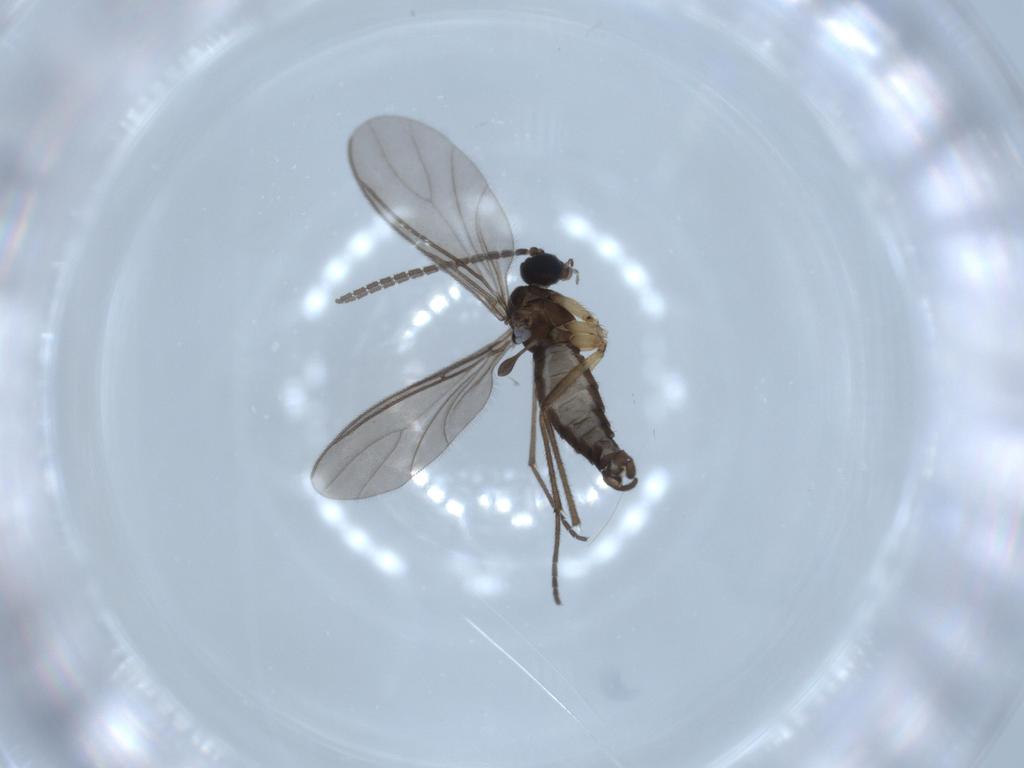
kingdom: Animalia
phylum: Arthropoda
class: Insecta
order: Diptera
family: Sciaridae
